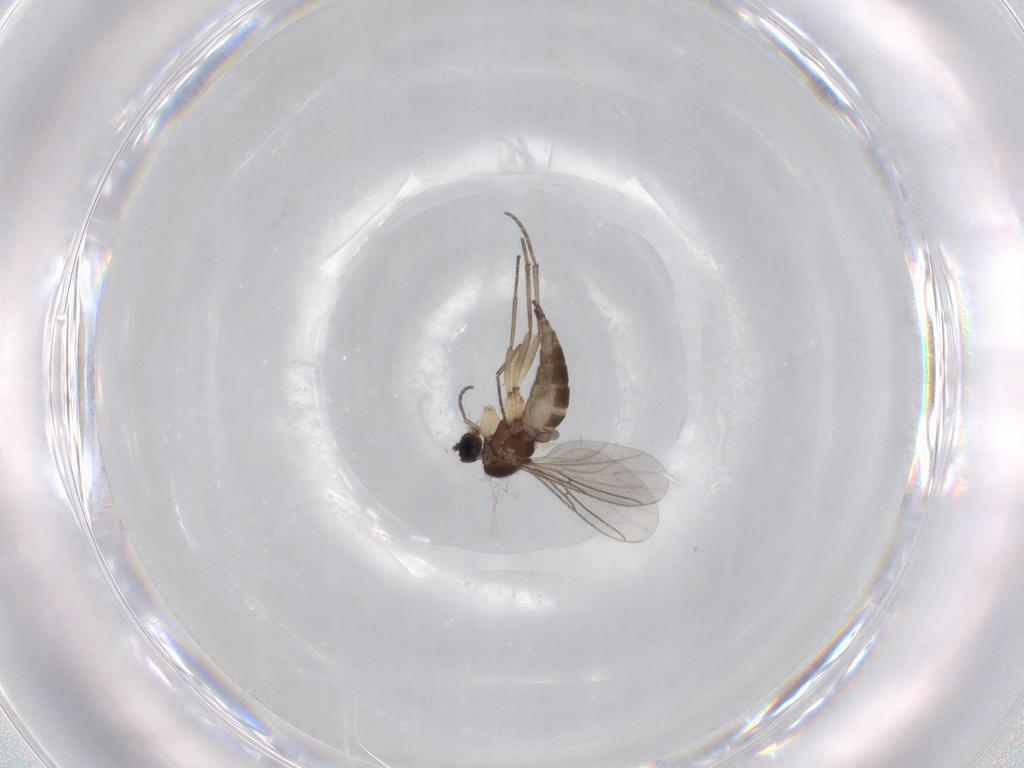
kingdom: Animalia
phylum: Arthropoda
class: Insecta
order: Diptera
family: Sciaridae
